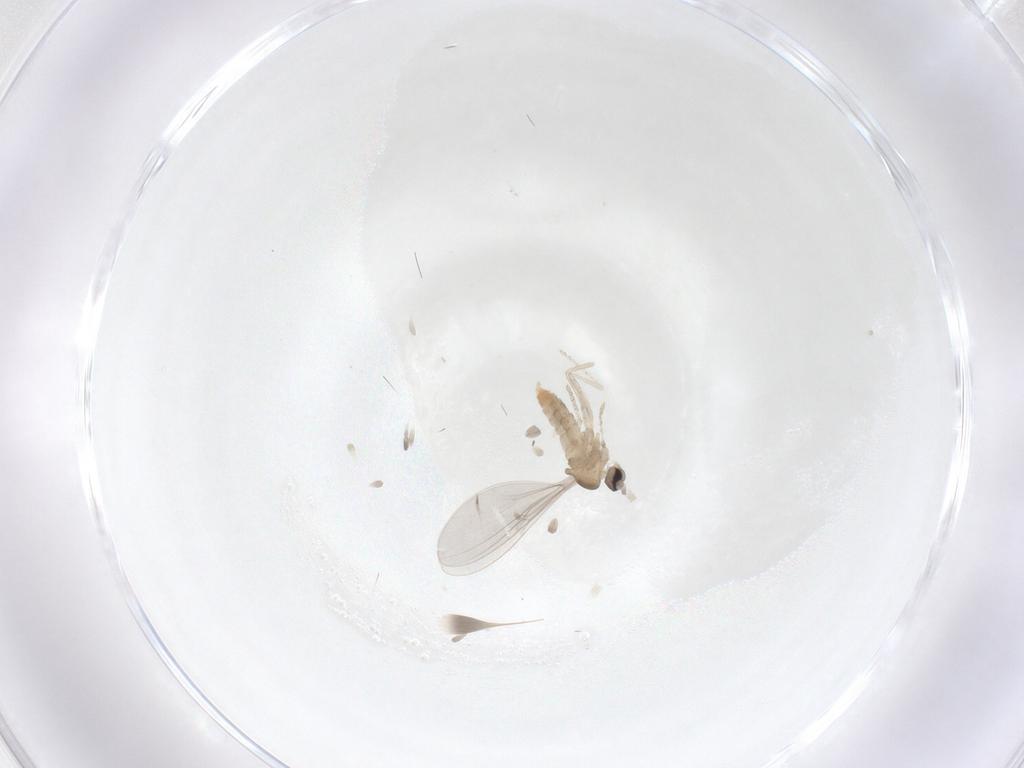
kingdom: Animalia
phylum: Arthropoda
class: Insecta
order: Diptera
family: Cecidomyiidae
